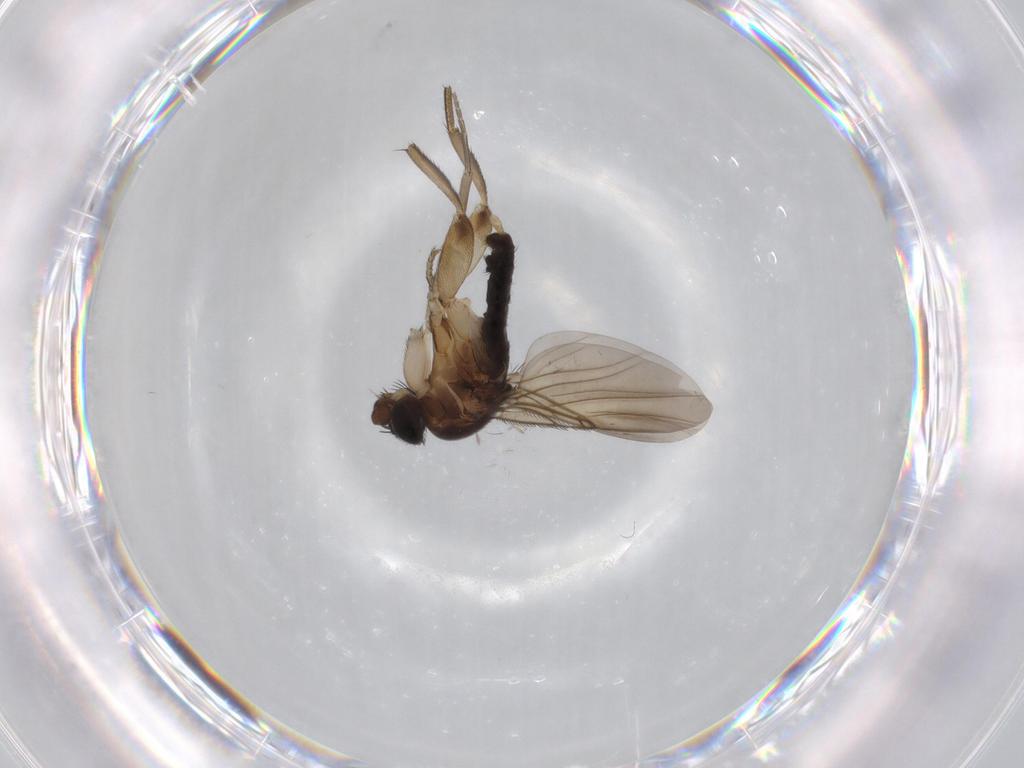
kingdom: Animalia
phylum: Arthropoda
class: Insecta
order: Diptera
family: Phoridae
